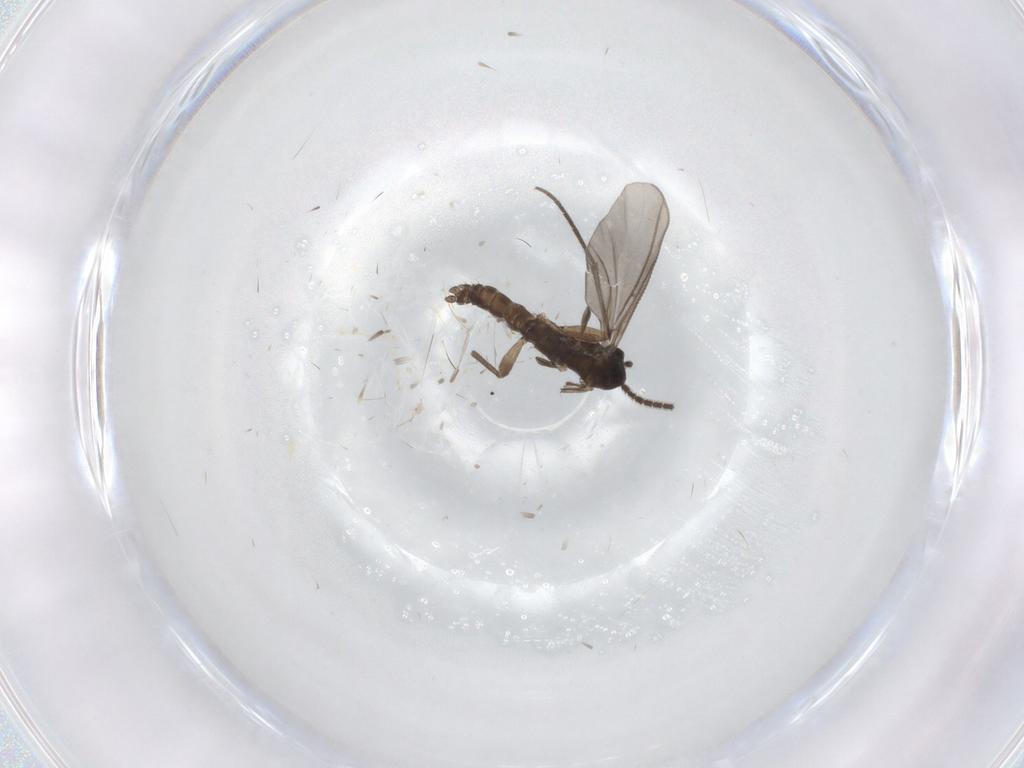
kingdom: Animalia
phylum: Arthropoda
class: Insecta
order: Diptera
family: Sciaridae
